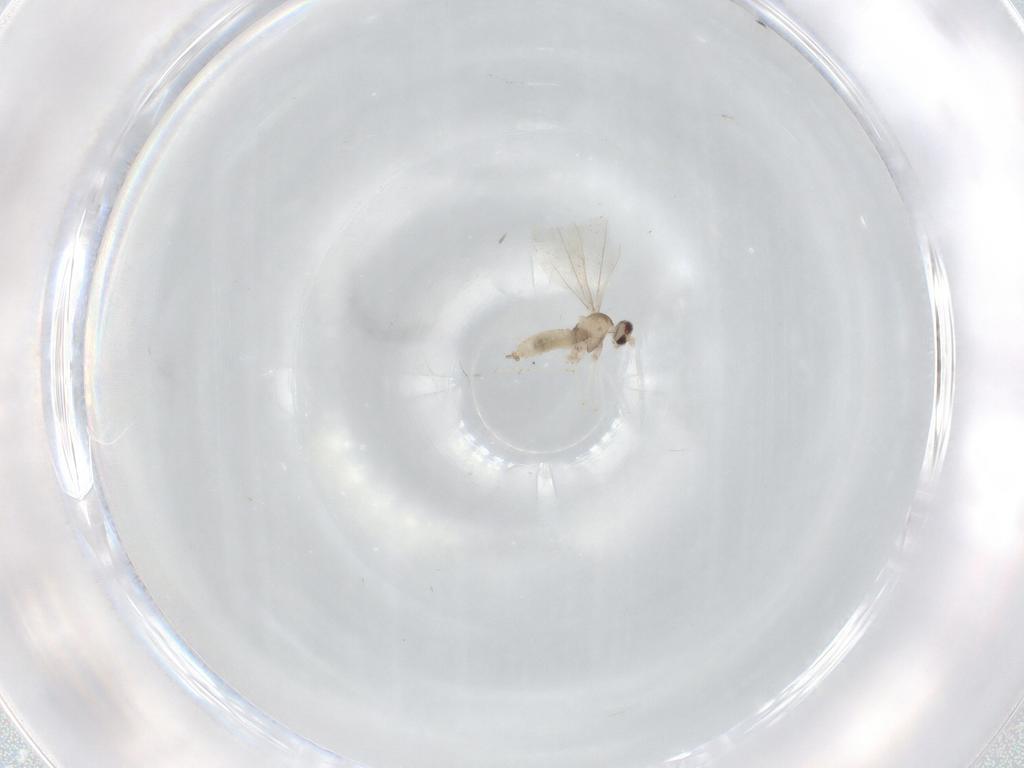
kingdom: Animalia
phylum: Arthropoda
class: Insecta
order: Diptera
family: Cecidomyiidae
